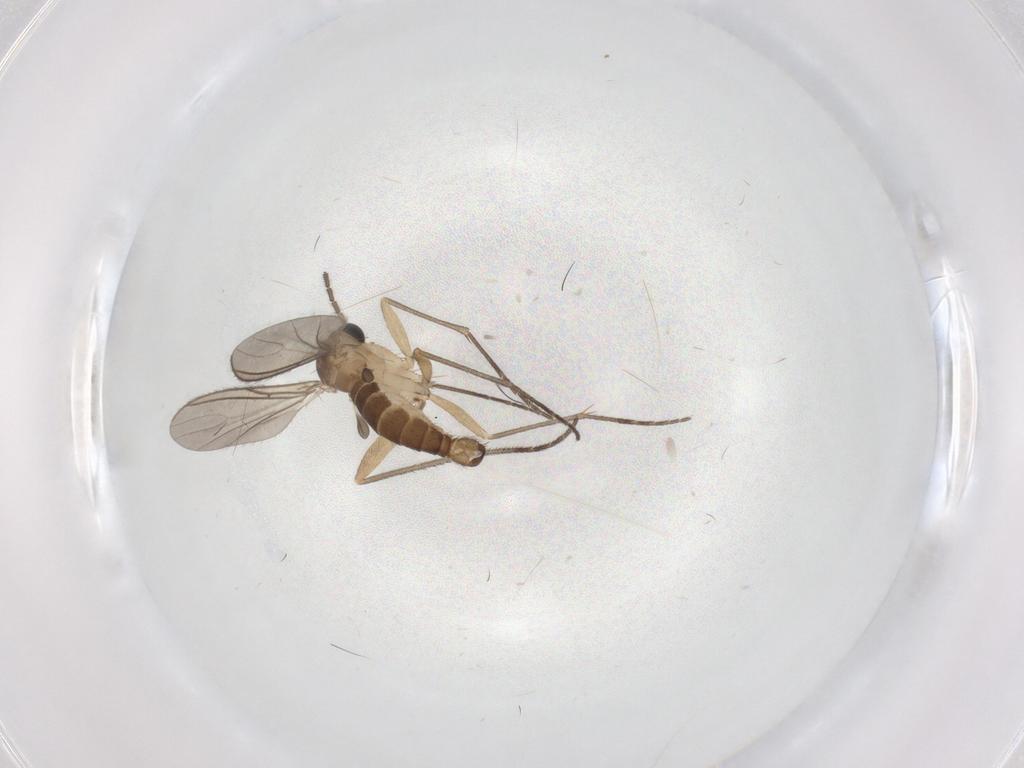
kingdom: Animalia
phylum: Arthropoda
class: Insecta
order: Diptera
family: Sciaridae
